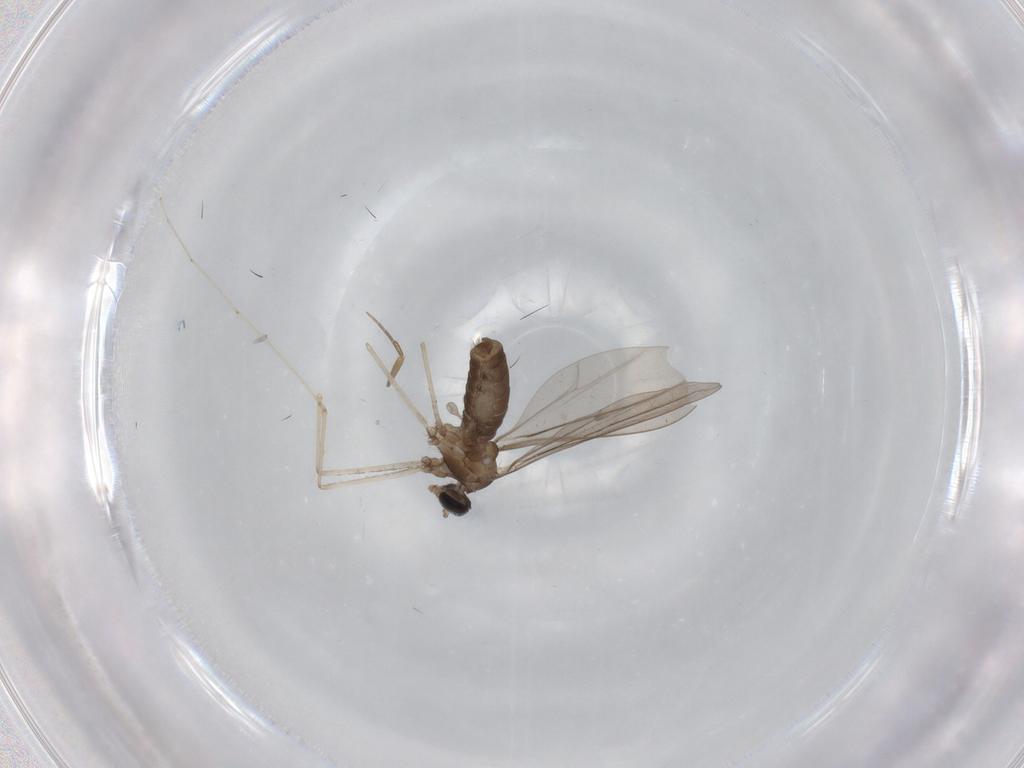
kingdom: Animalia
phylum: Arthropoda
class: Insecta
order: Diptera
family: Cecidomyiidae
